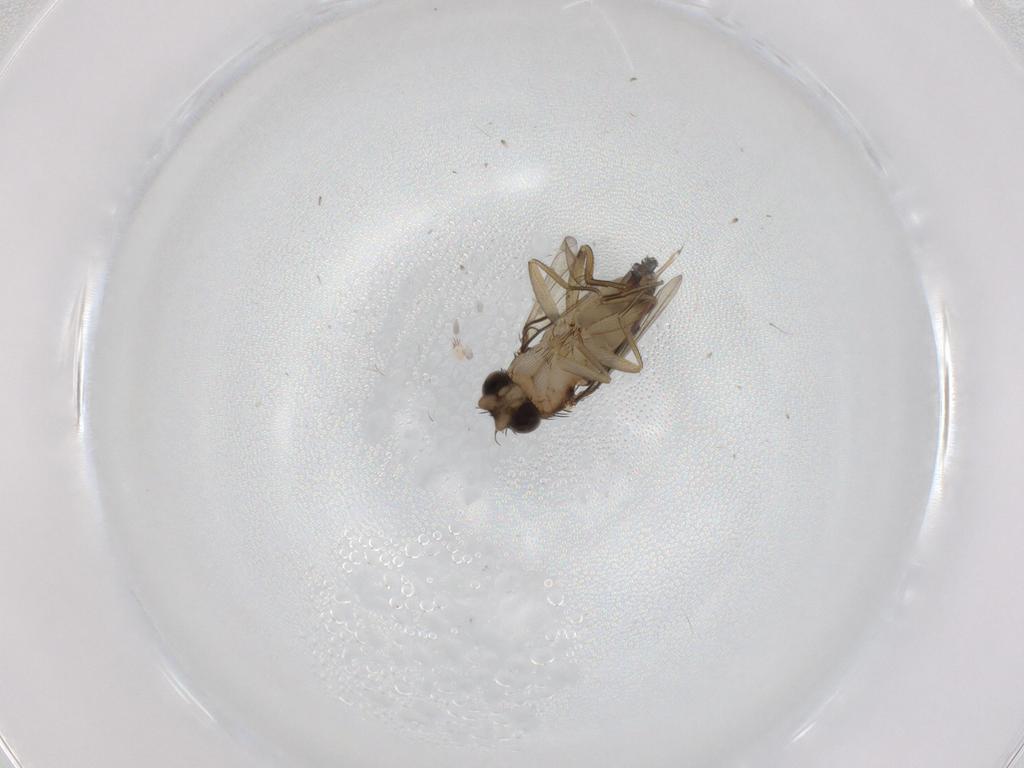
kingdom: Animalia
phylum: Arthropoda
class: Insecta
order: Diptera
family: Phoridae
